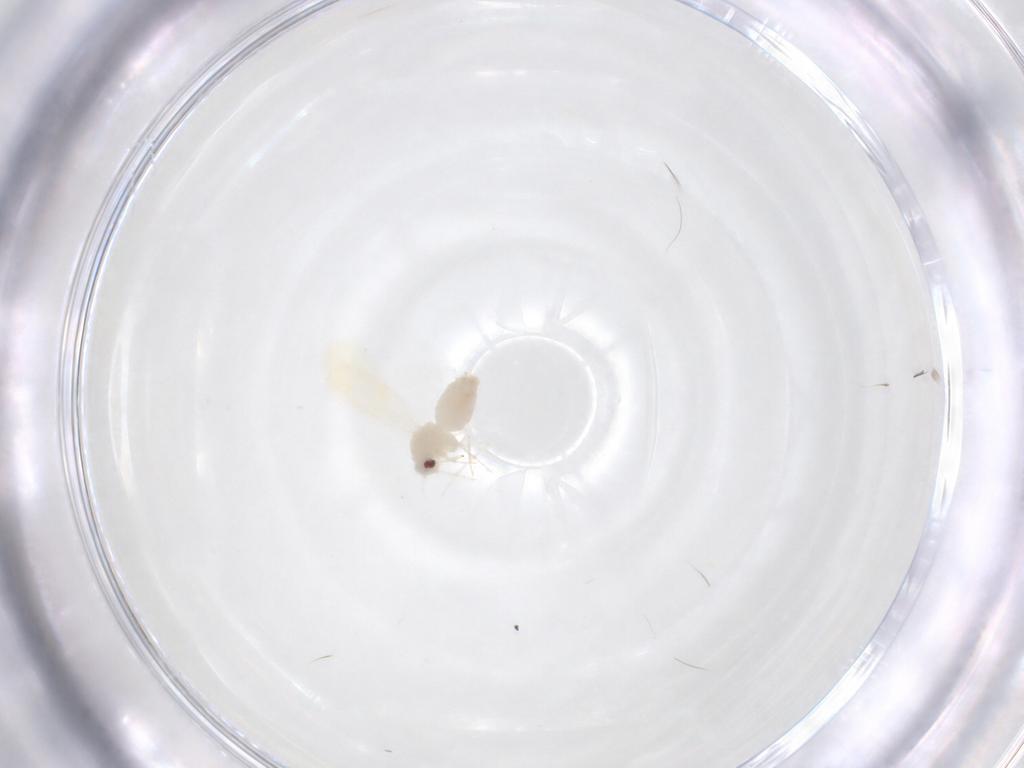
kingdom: Animalia
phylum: Arthropoda
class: Insecta
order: Hemiptera
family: Aleyrodidae
